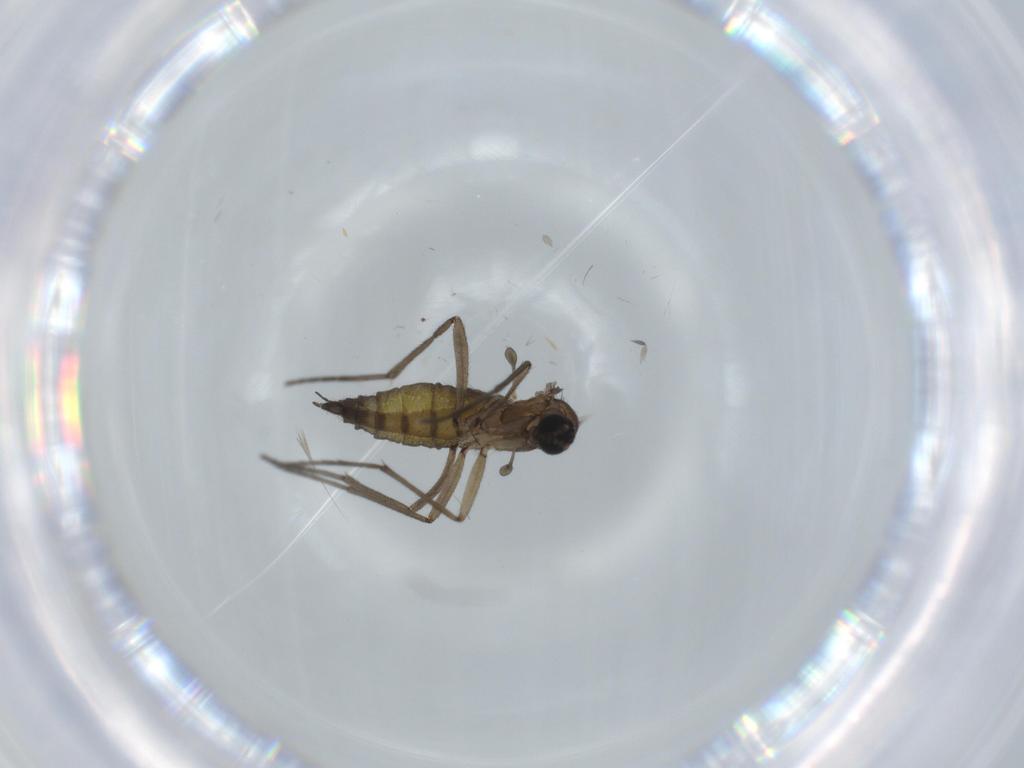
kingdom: Animalia
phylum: Arthropoda
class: Insecta
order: Diptera
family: Sciaridae
